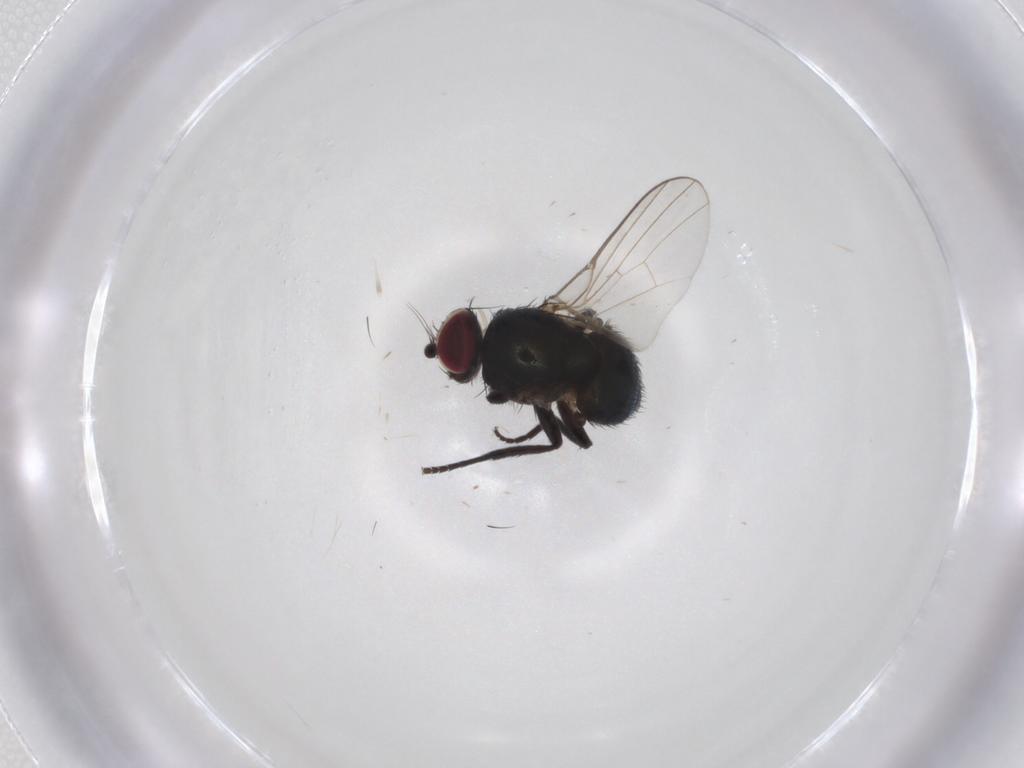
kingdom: Animalia
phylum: Arthropoda
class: Insecta
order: Diptera
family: Agromyzidae
